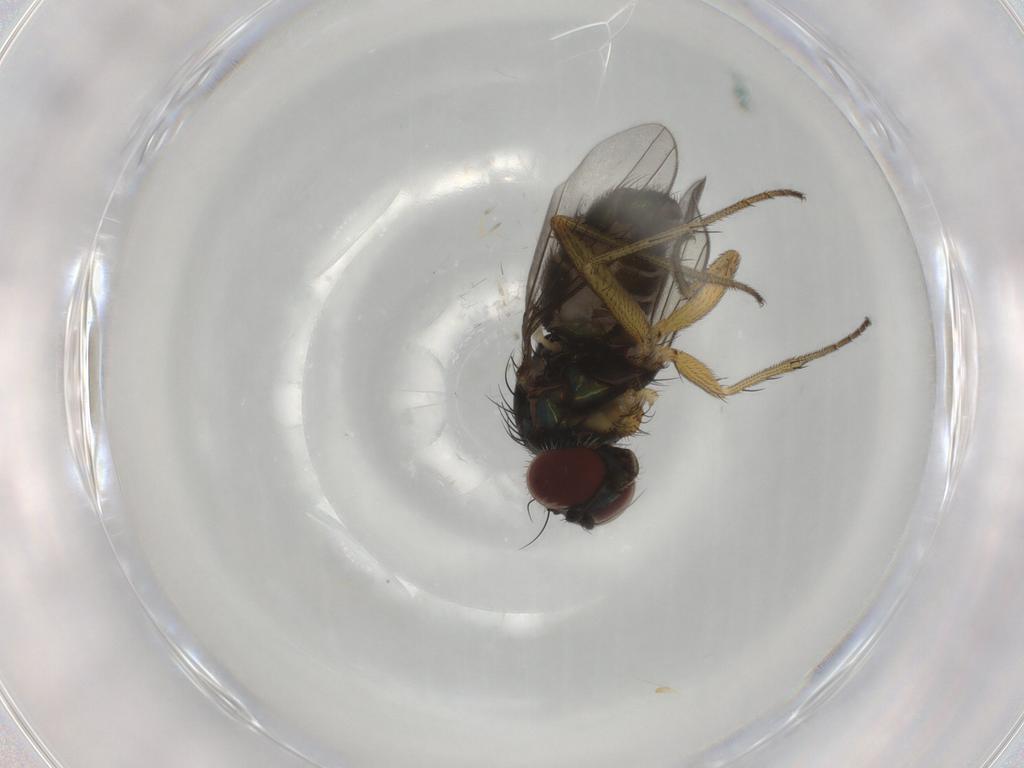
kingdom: Animalia
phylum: Arthropoda
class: Insecta
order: Diptera
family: Dolichopodidae
